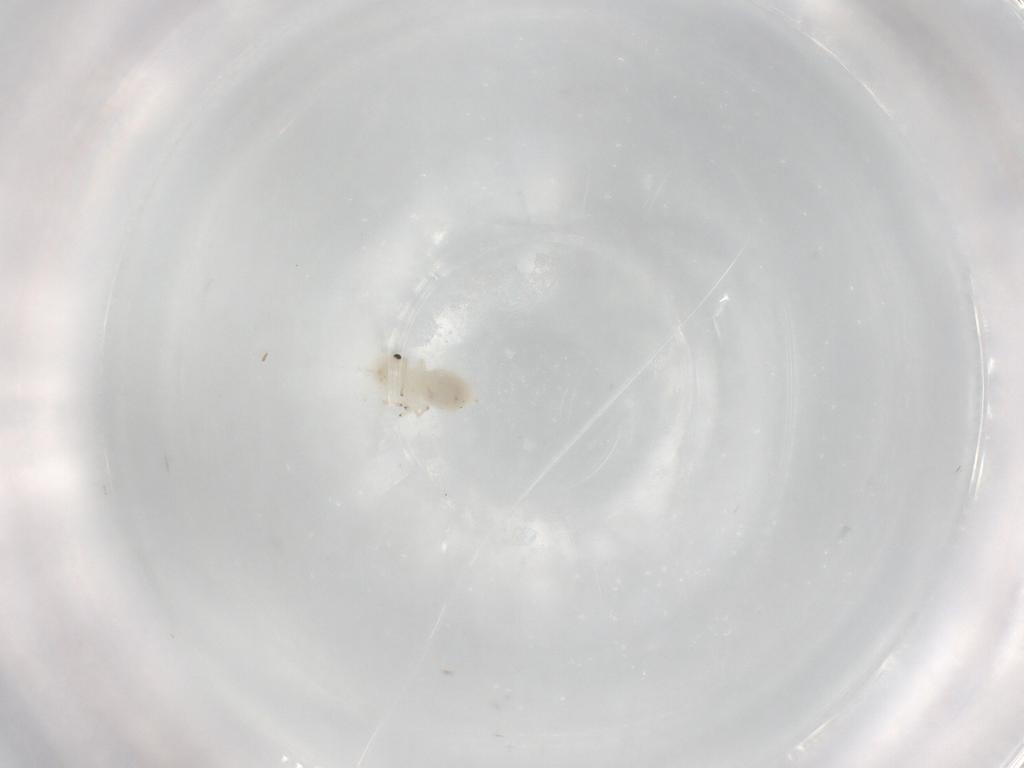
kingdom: Animalia
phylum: Arthropoda
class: Insecta
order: Psocodea
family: Caeciliusidae
